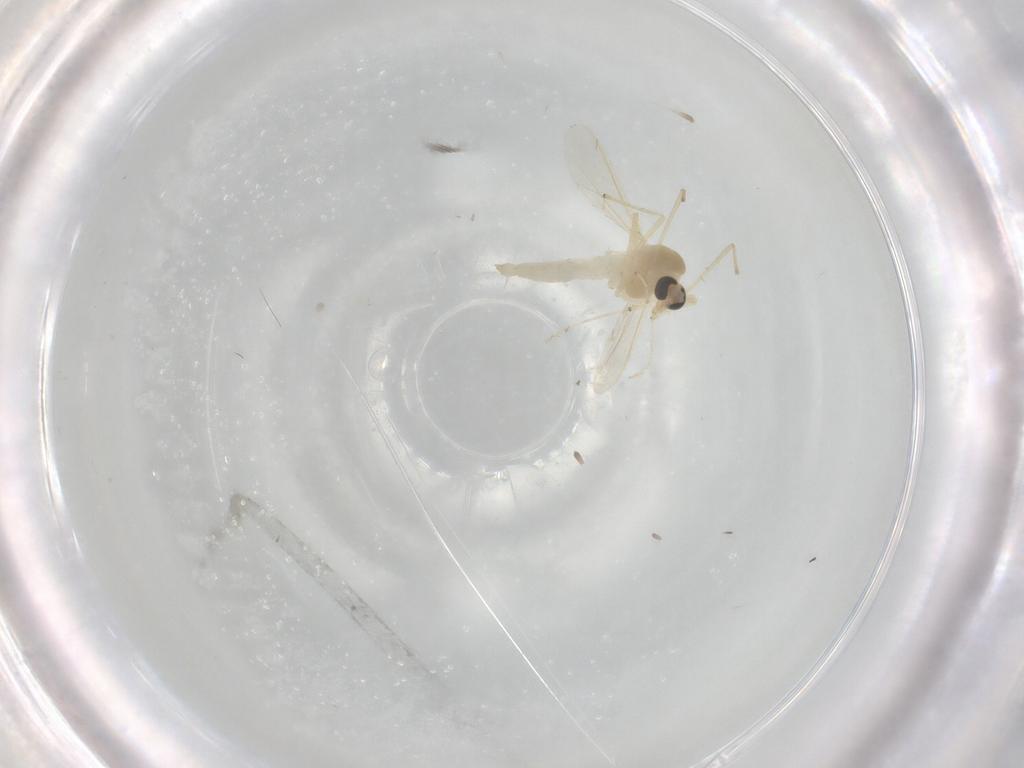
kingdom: Animalia
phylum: Arthropoda
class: Insecta
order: Diptera
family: Chironomidae
